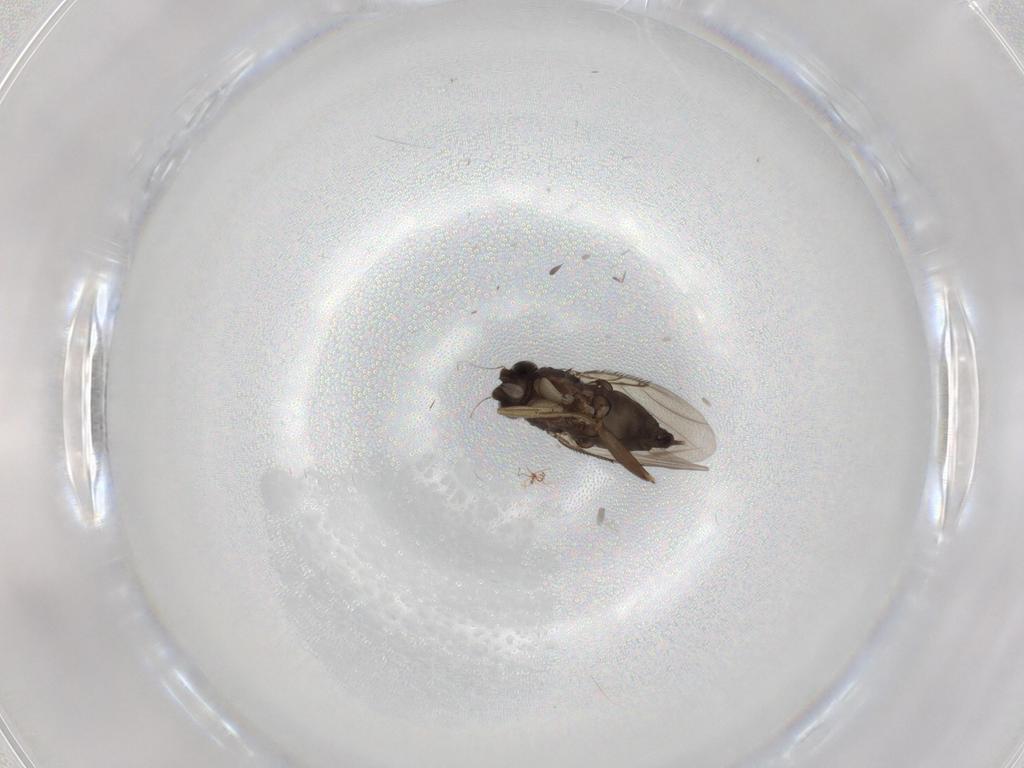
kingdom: Animalia
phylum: Arthropoda
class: Insecta
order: Diptera
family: Phoridae
